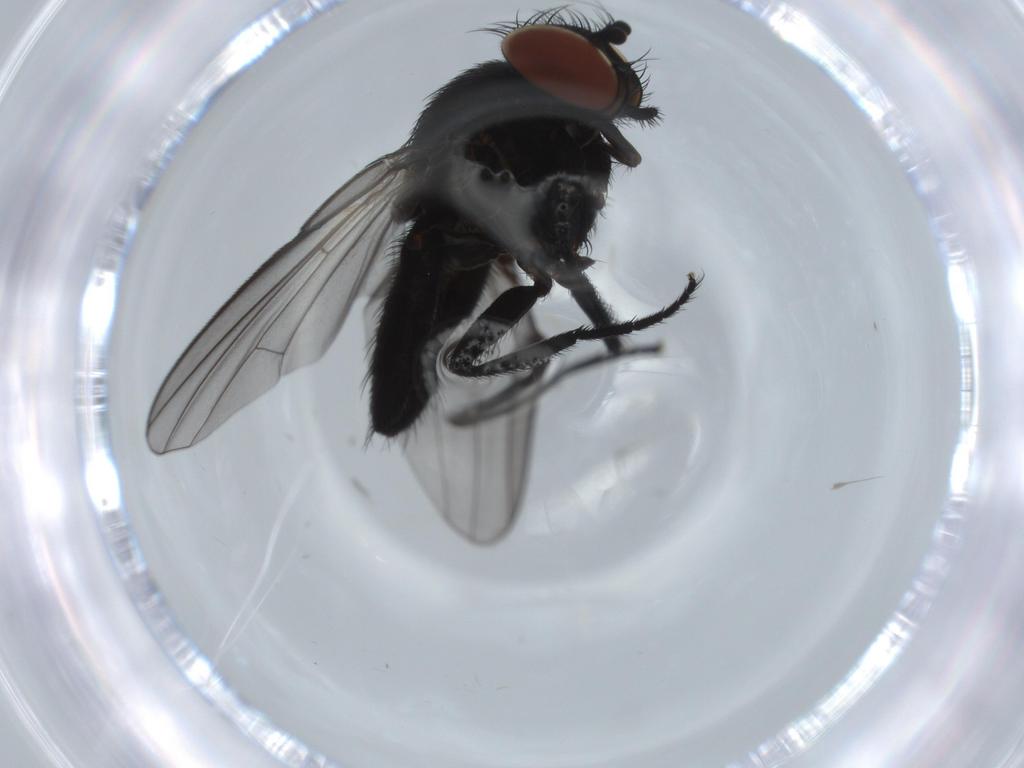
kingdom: Animalia
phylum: Arthropoda
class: Insecta
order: Diptera
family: Milichiidae
